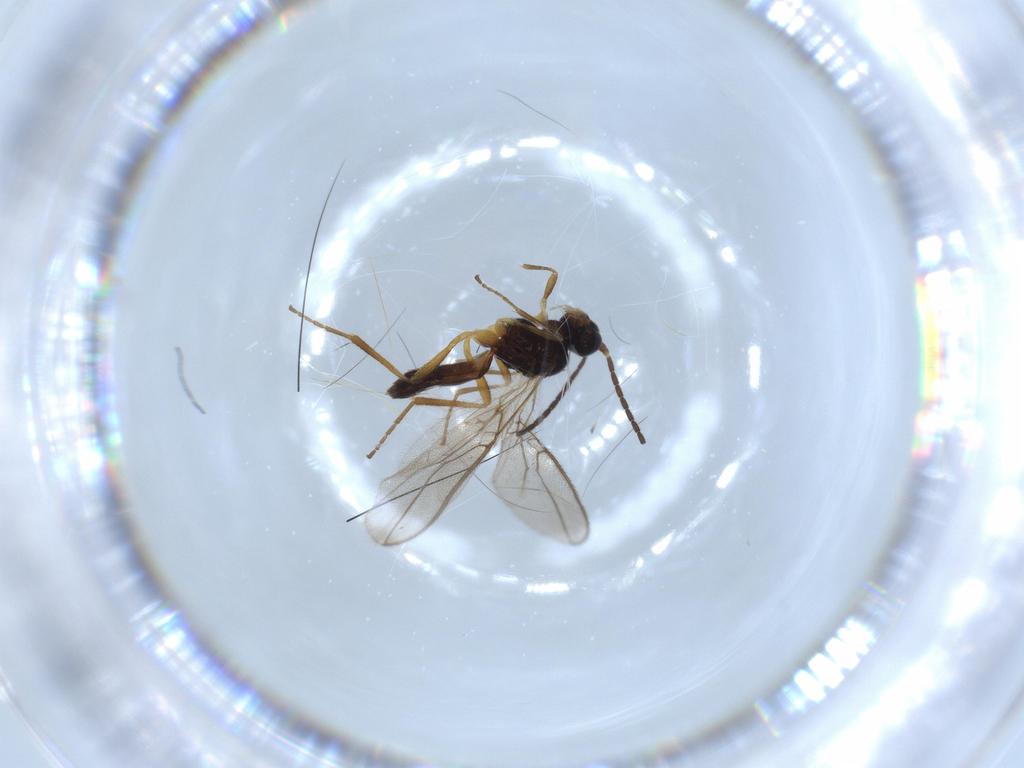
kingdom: Animalia
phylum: Arthropoda
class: Insecta
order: Hymenoptera
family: Braconidae
